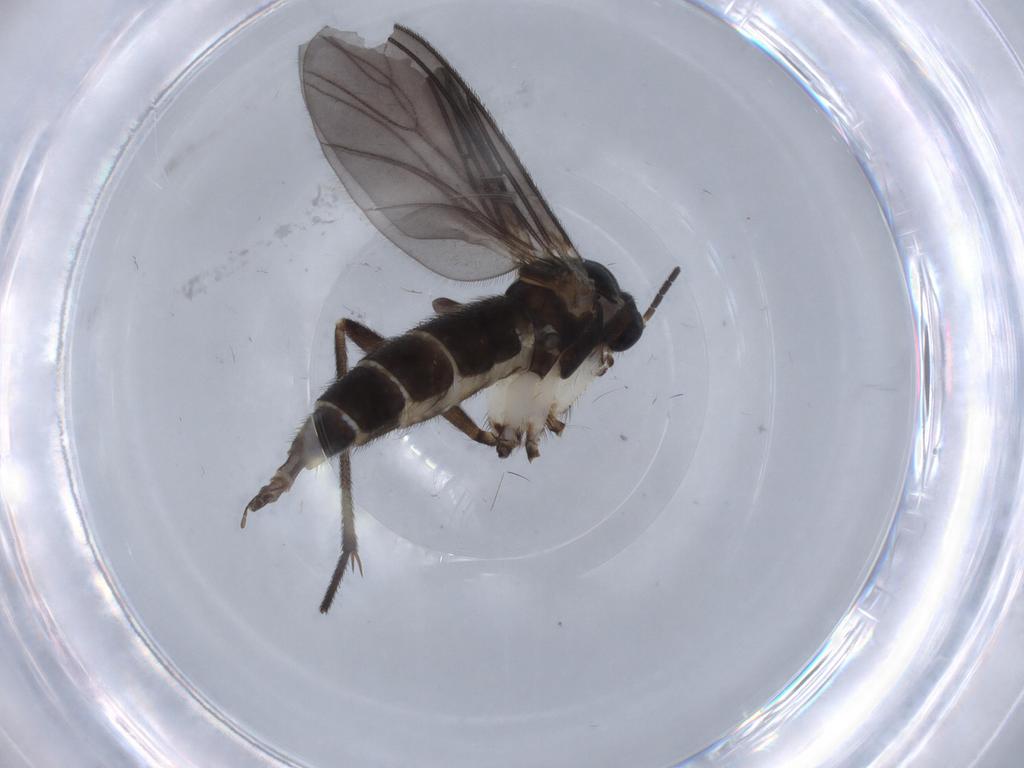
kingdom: Animalia
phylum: Arthropoda
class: Insecta
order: Diptera
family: Sciaridae
